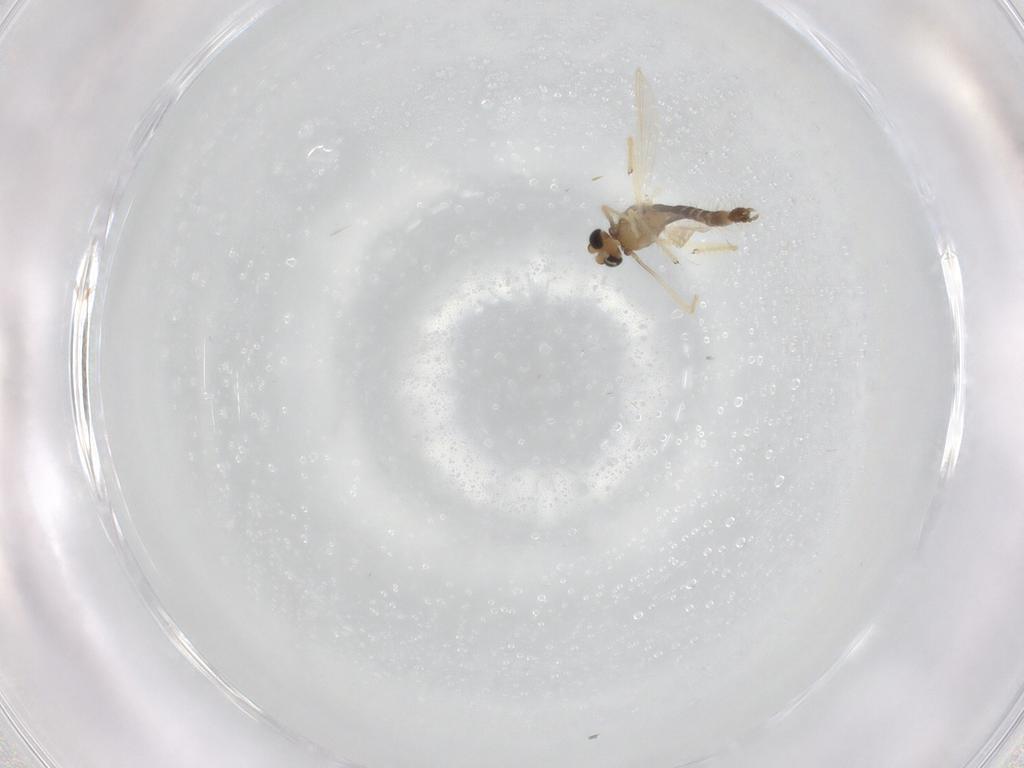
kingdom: Animalia
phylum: Arthropoda
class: Insecta
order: Diptera
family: Chironomidae
